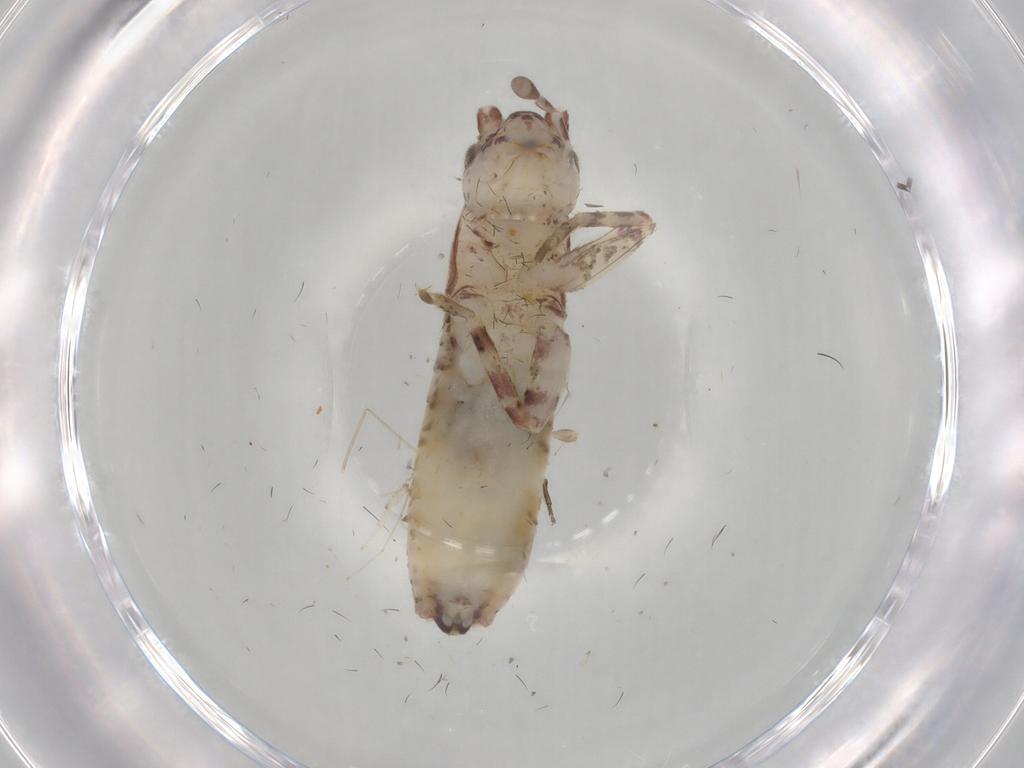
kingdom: Animalia
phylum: Arthropoda
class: Insecta
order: Orthoptera
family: Mogoplistidae
